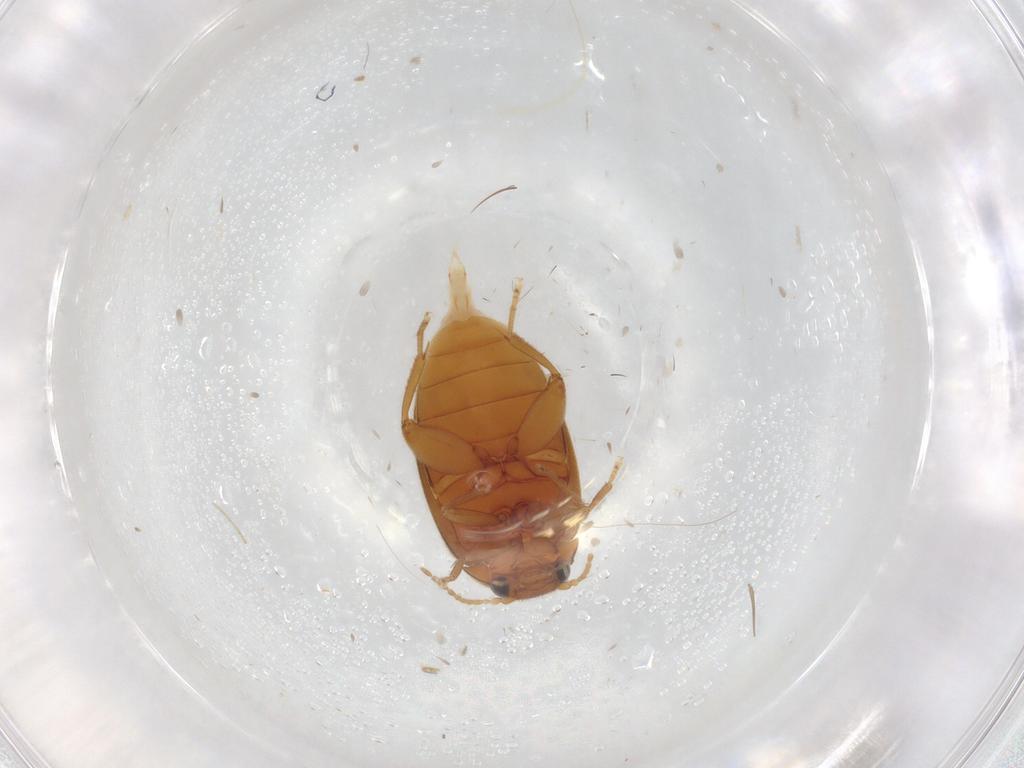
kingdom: Animalia
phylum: Arthropoda
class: Insecta
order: Coleoptera
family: Scirtidae
